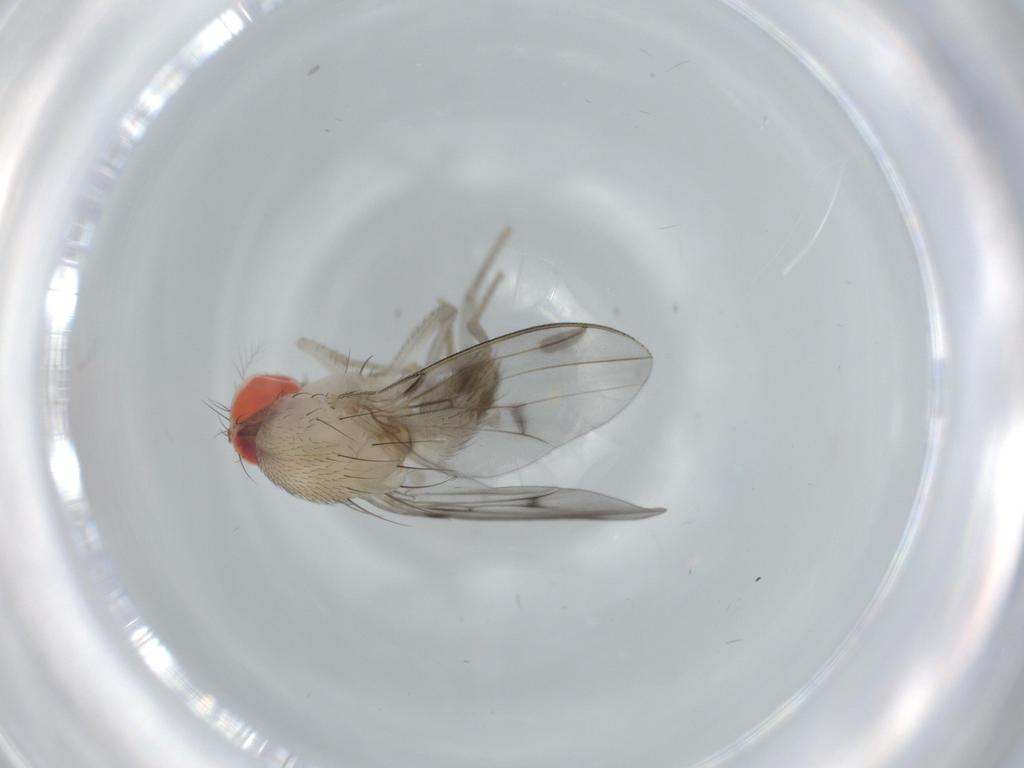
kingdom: Animalia
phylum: Arthropoda
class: Insecta
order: Diptera
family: Drosophilidae
